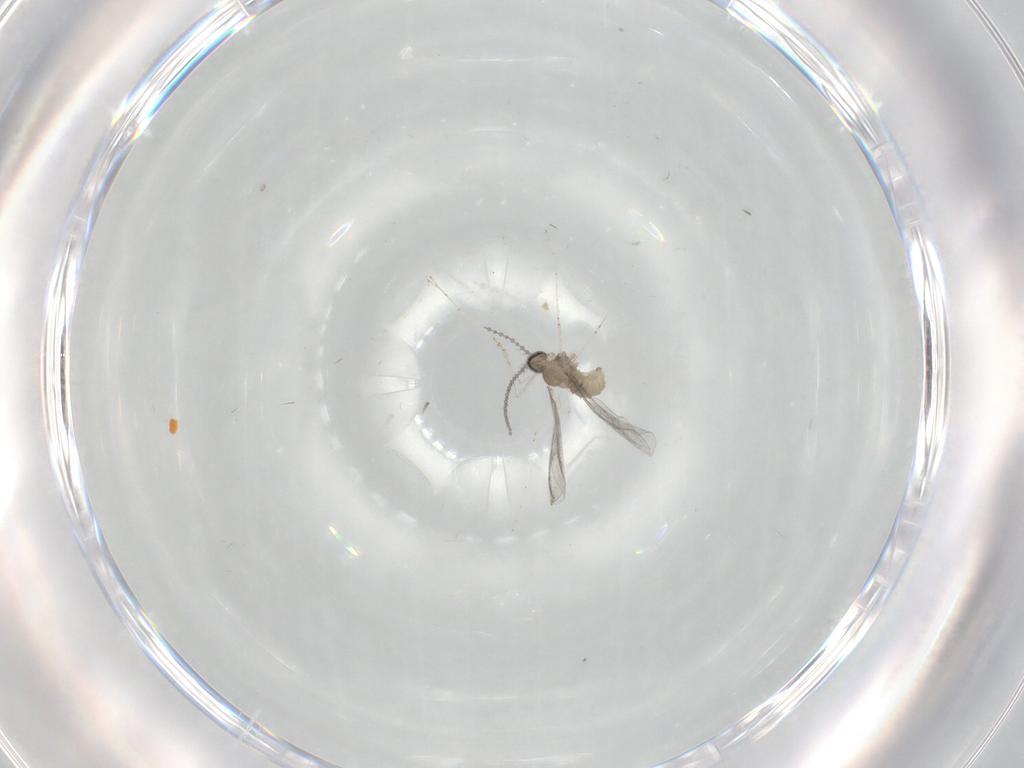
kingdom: Animalia
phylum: Arthropoda
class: Insecta
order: Diptera
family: Cecidomyiidae
